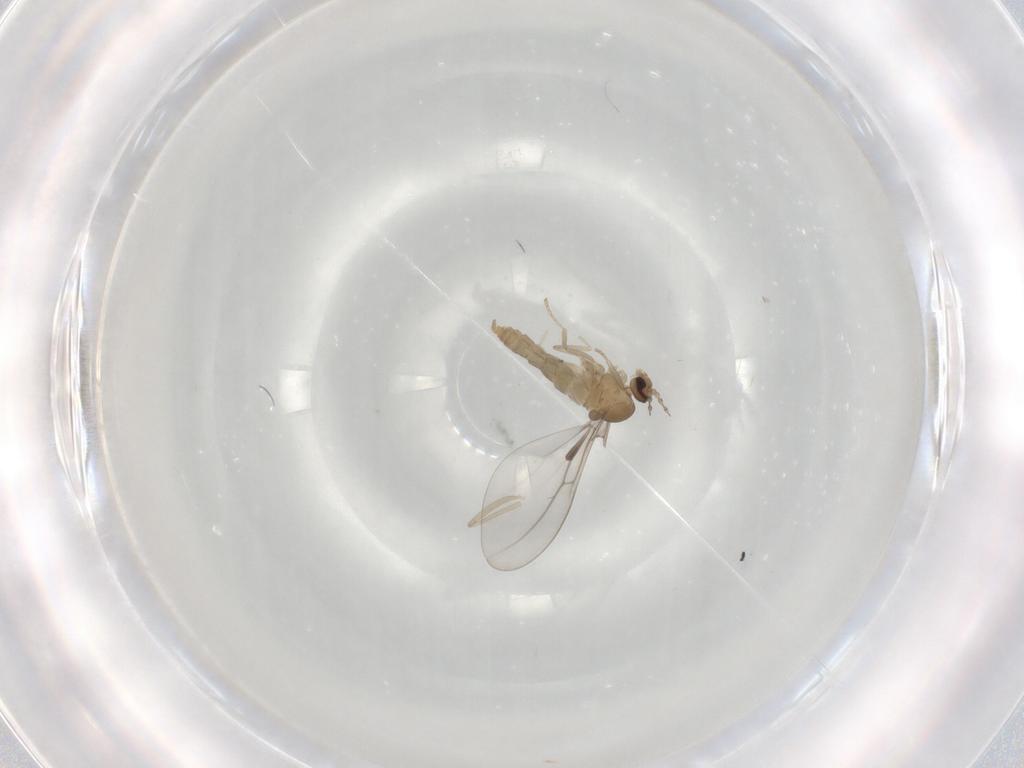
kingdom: Animalia
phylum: Arthropoda
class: Insecta
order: Diptera
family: Cecidomyiidae
